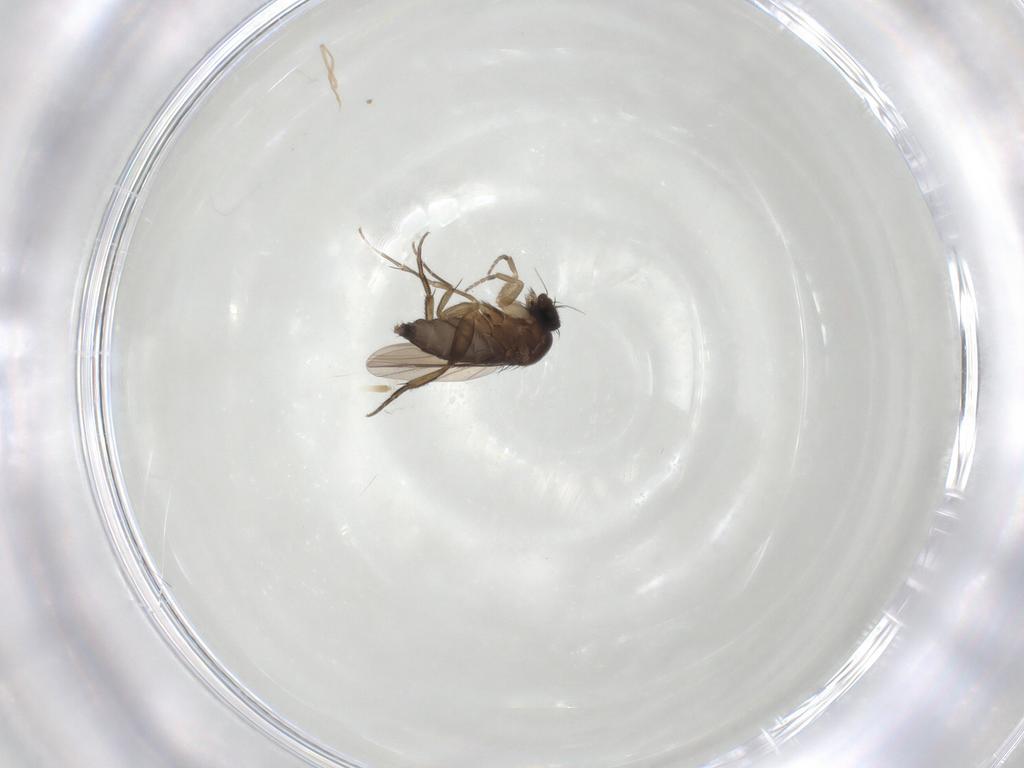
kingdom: Animalia
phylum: Arthropoda
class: Insecta
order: Diptera
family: Phoridae
